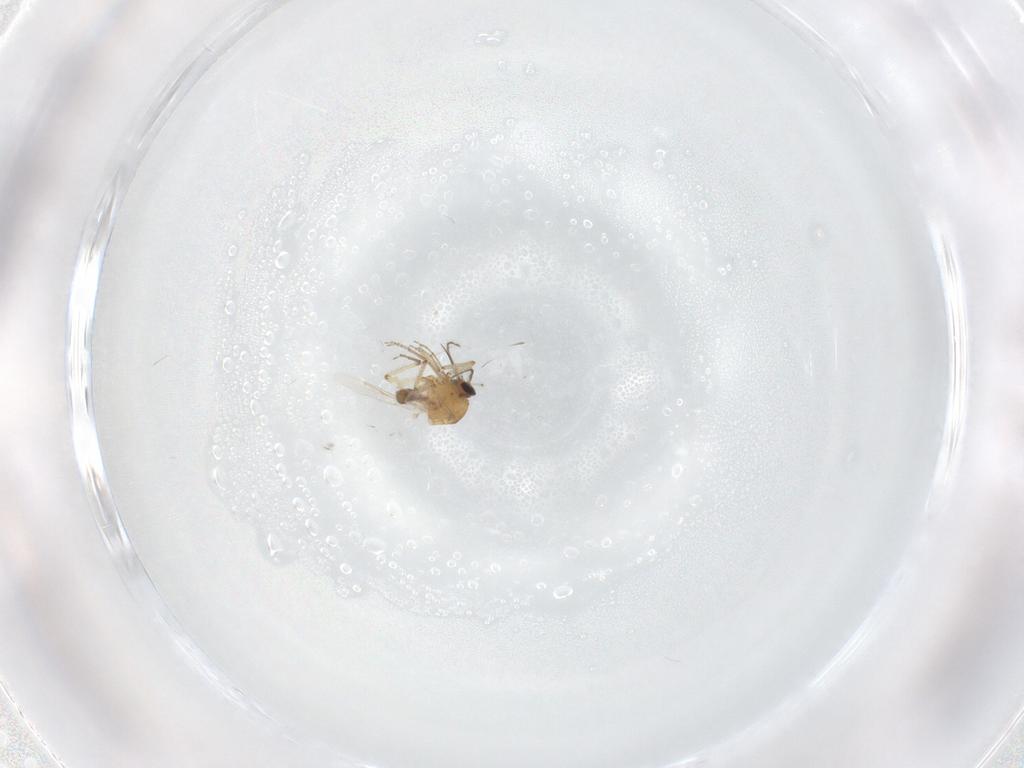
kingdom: Animalia
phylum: Arthropoda
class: Insecta
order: Diptera
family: Ceratopogonidae
